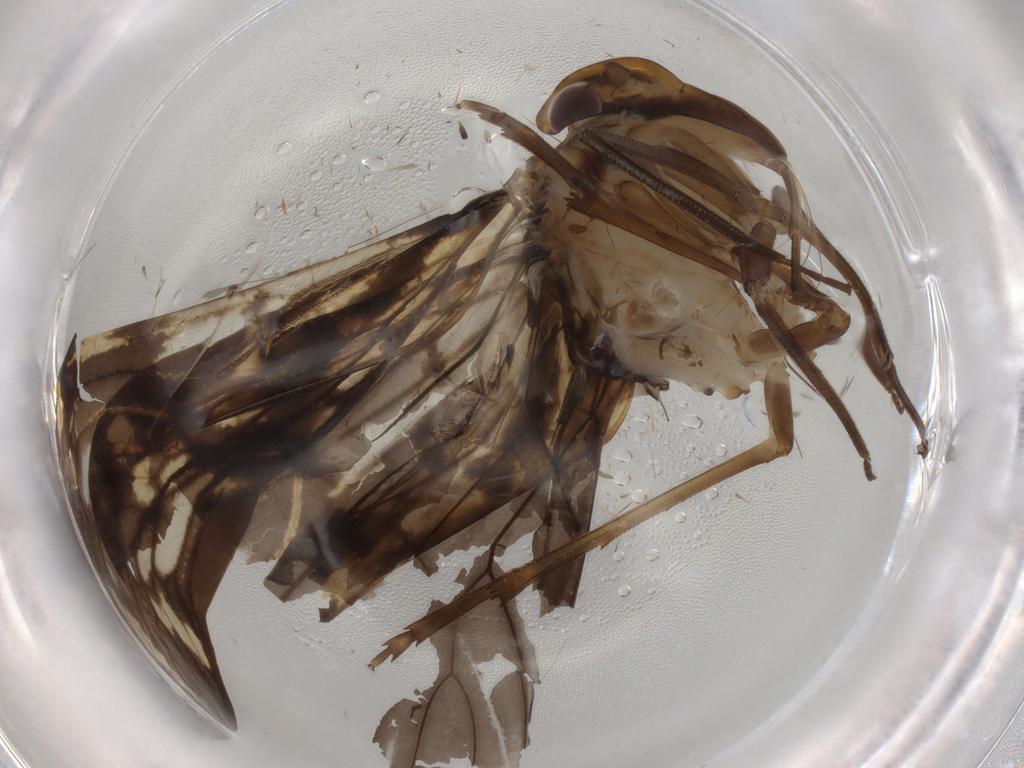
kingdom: Animalia
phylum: Arthropoda
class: Insecta
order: Hemiptera
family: Cixiidae
